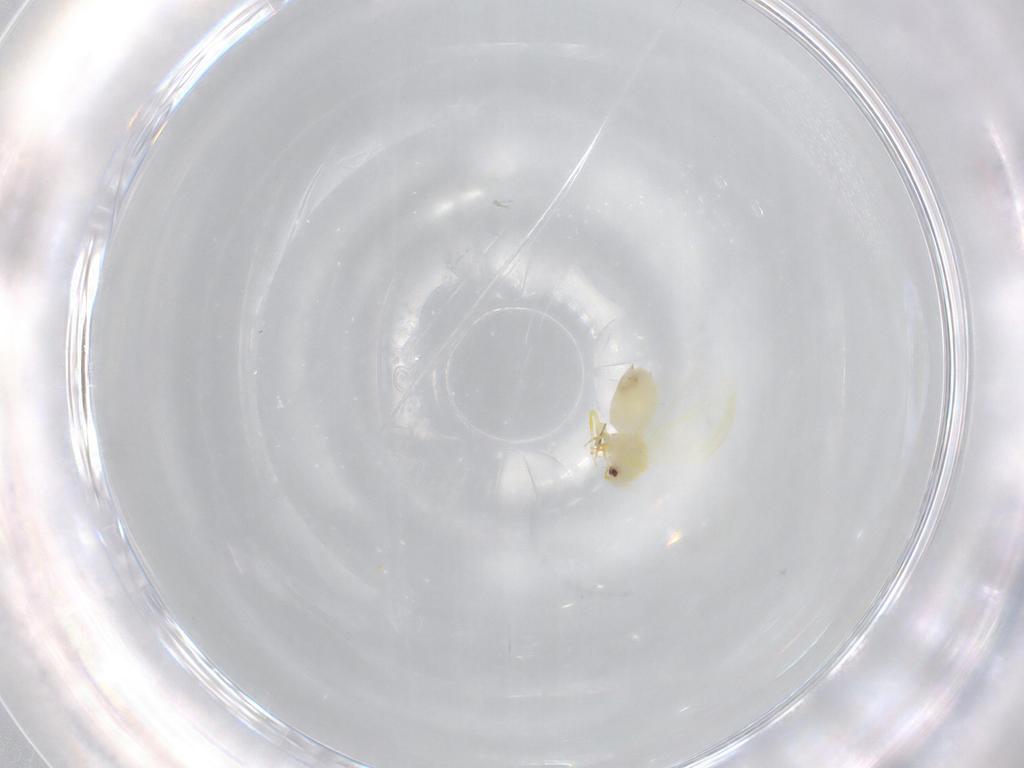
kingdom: Animalia
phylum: Arthropoda
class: Insecta
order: Hemiptera
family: Aleyrodidae
